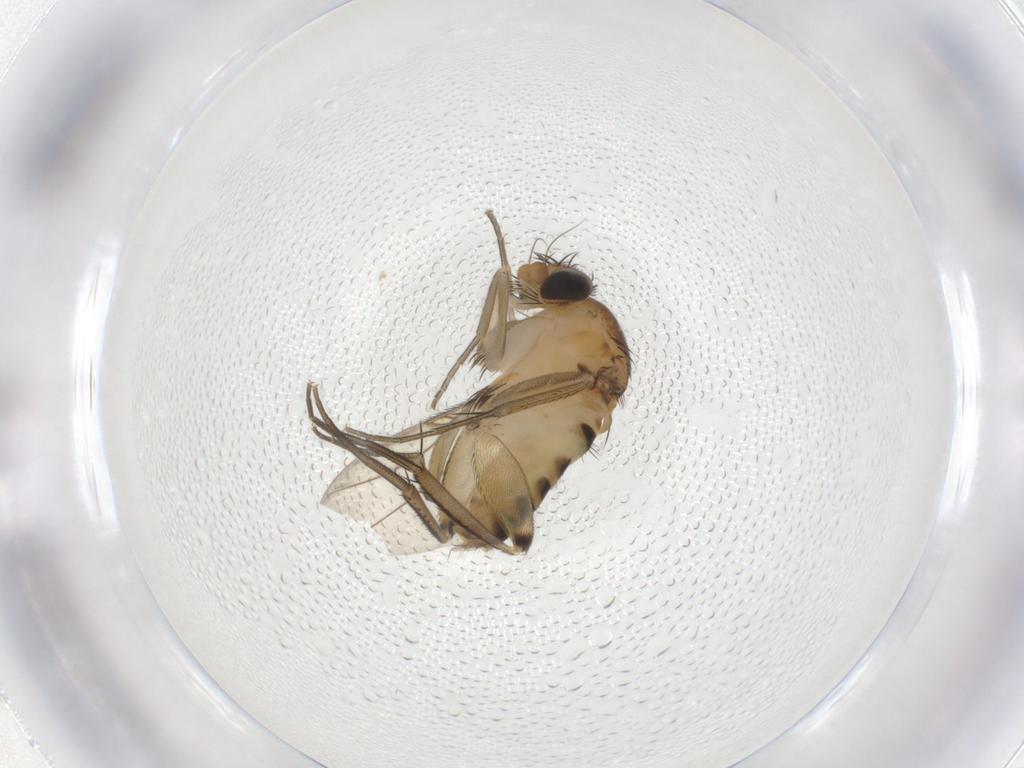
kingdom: Animalia
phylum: Arthropoda
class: Insecta
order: Diptera
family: Phoridae
